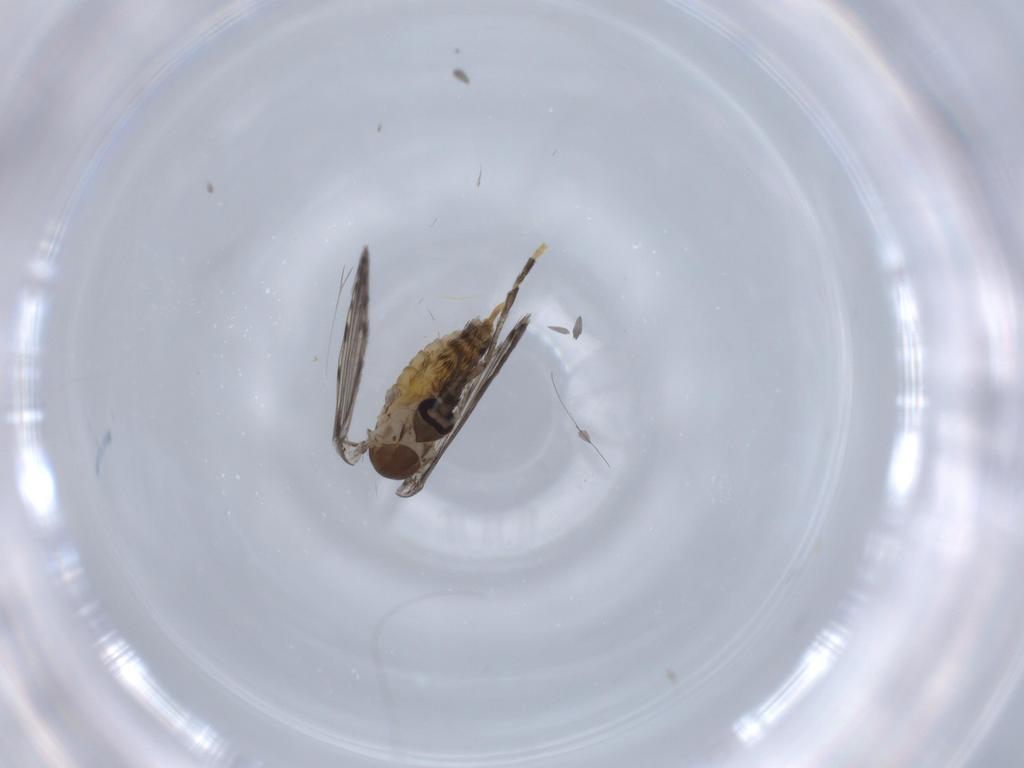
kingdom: Animalia
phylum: Arthropoda
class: Insecta
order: Diptera
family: Psychodidae
